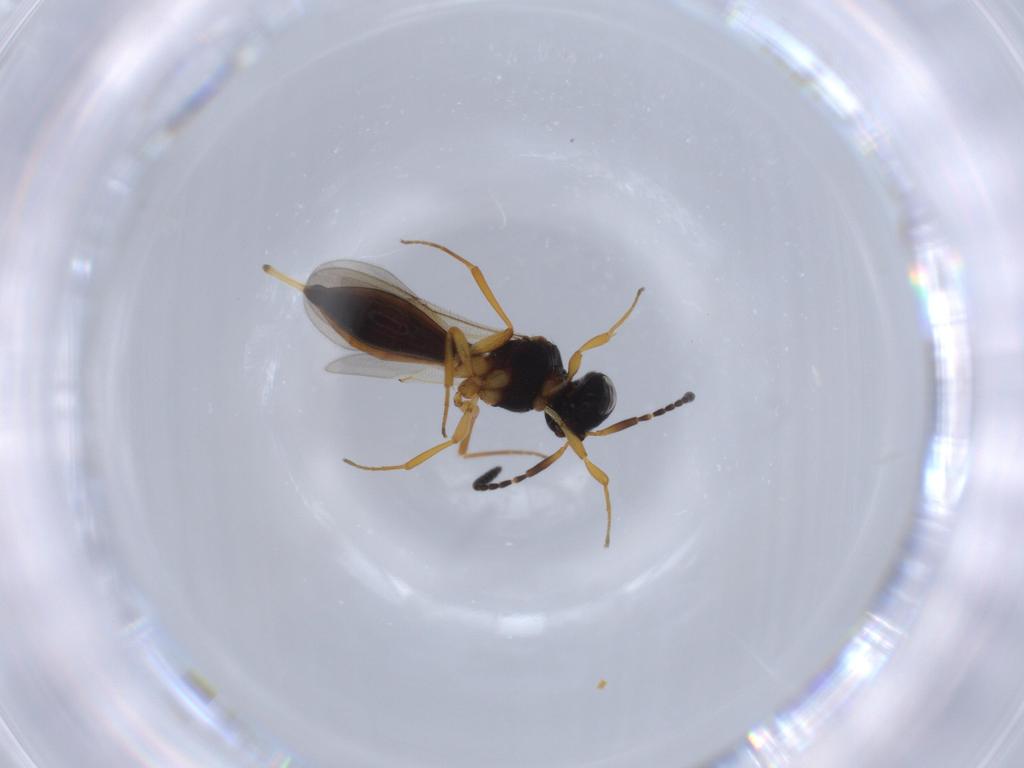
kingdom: Animalia
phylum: Arthropoda
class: Insecta
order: Hymenoptera
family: Scelionidae
